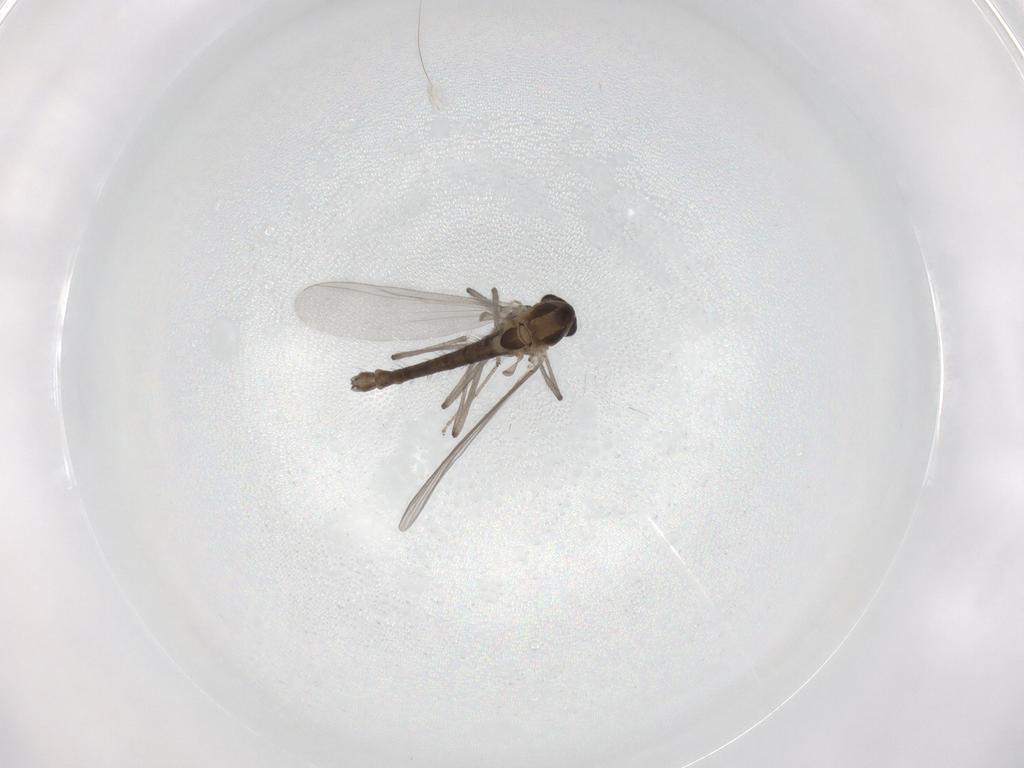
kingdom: Animalia
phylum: Arthropoda
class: Insecta
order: Diptera
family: Chironomidae
